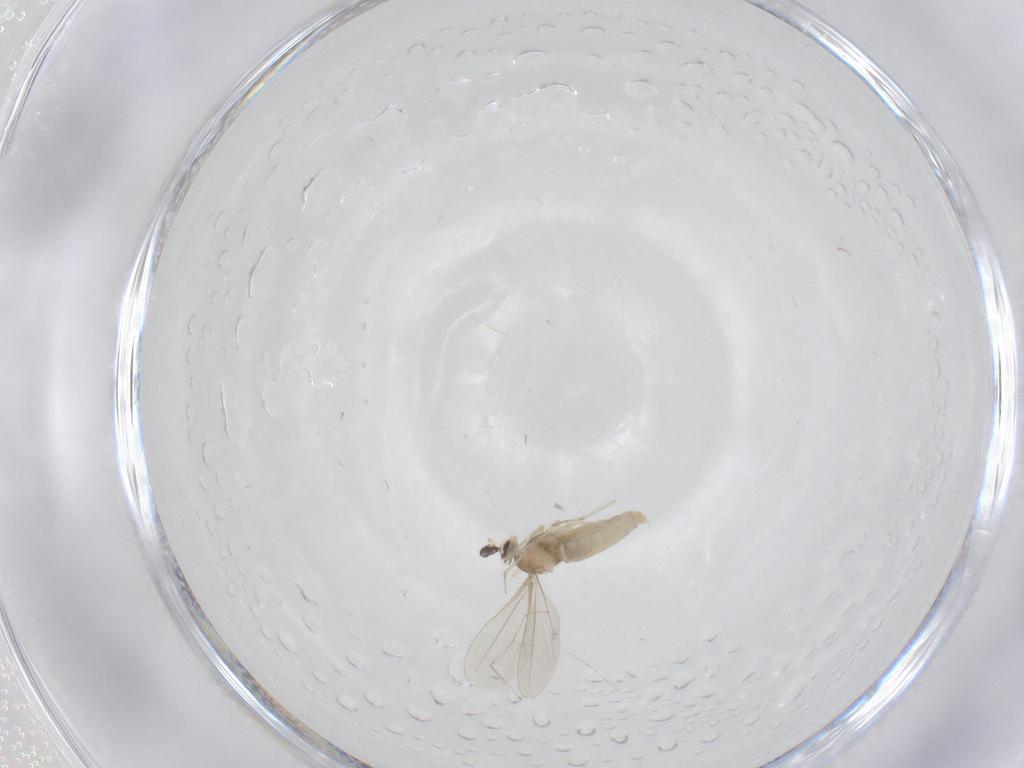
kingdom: Animalia
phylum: Arthropoda
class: Insecta
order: Diptera
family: Cecidomyiidae
